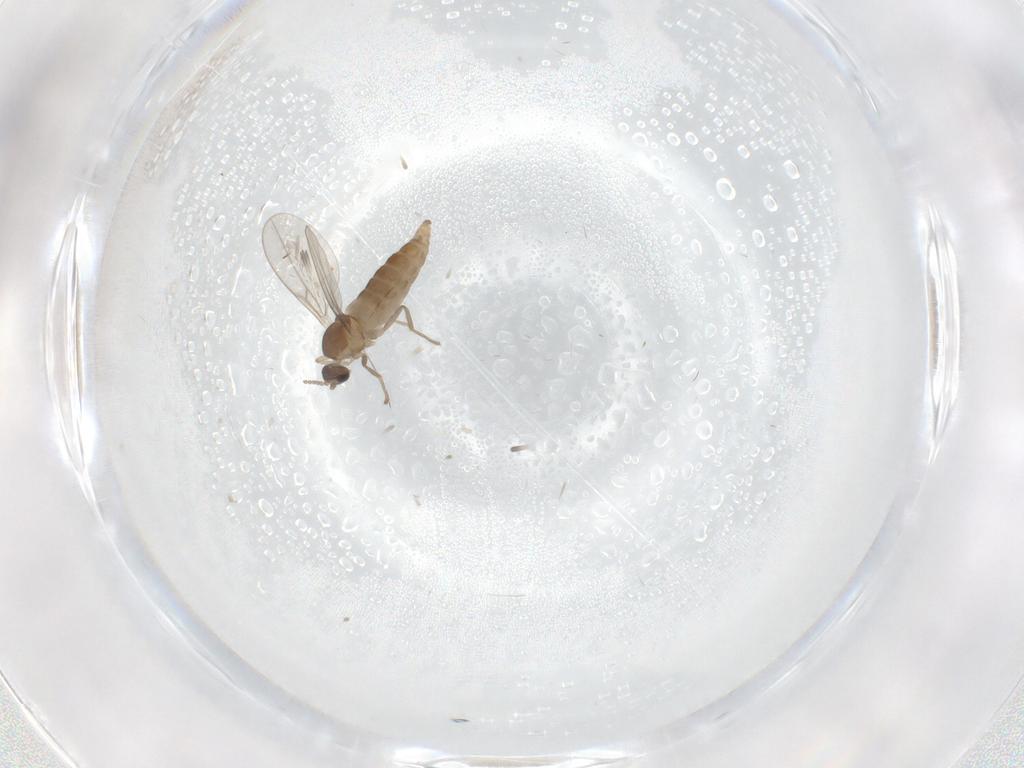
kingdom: Animalia
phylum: Arthropoda
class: Insecta
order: Diptera
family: Cecidomyiidae
